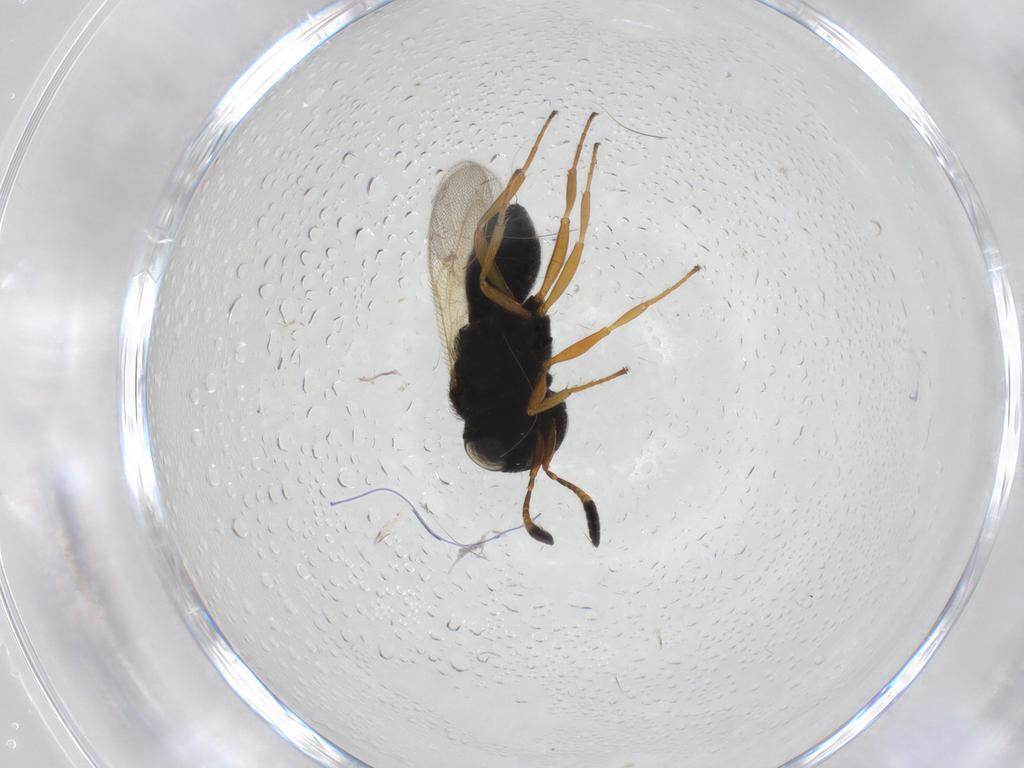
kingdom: Animalia
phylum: Arthropoda
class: Insecta
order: Hymenoptera
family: Scelionidae
